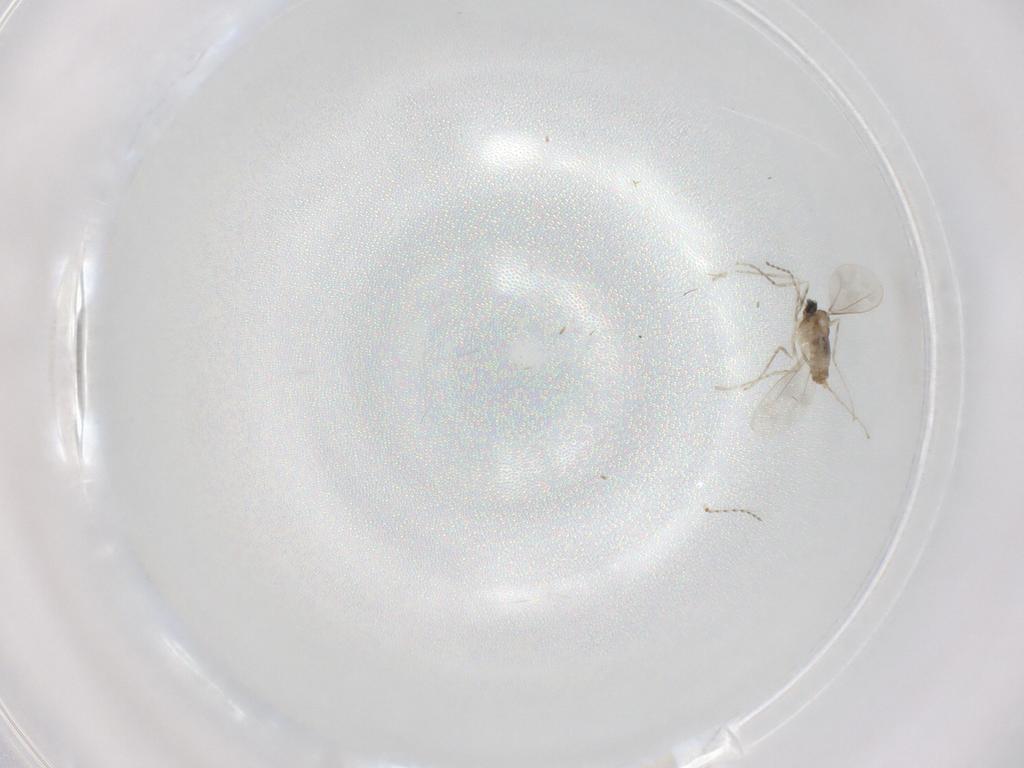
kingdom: Animalia
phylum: Arthropoda
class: Insecta
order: Diptera
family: Cecidomyiidae
